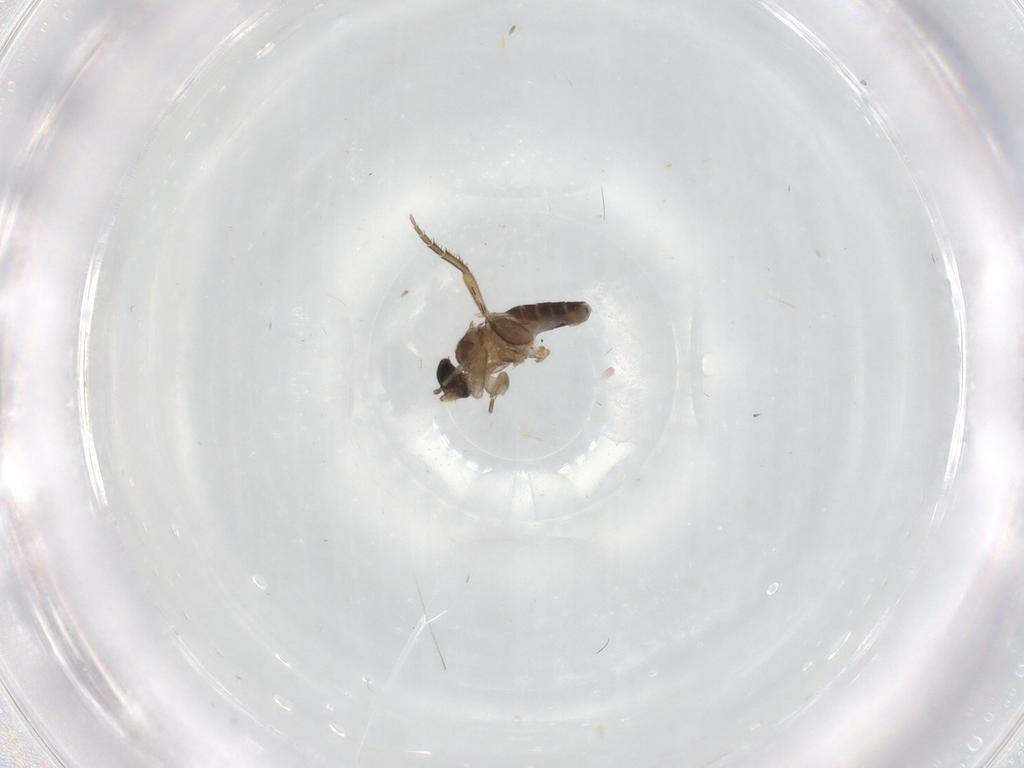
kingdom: Animalia
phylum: Arthropoda
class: Insecta
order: Diptera
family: Cecidomyiidae
